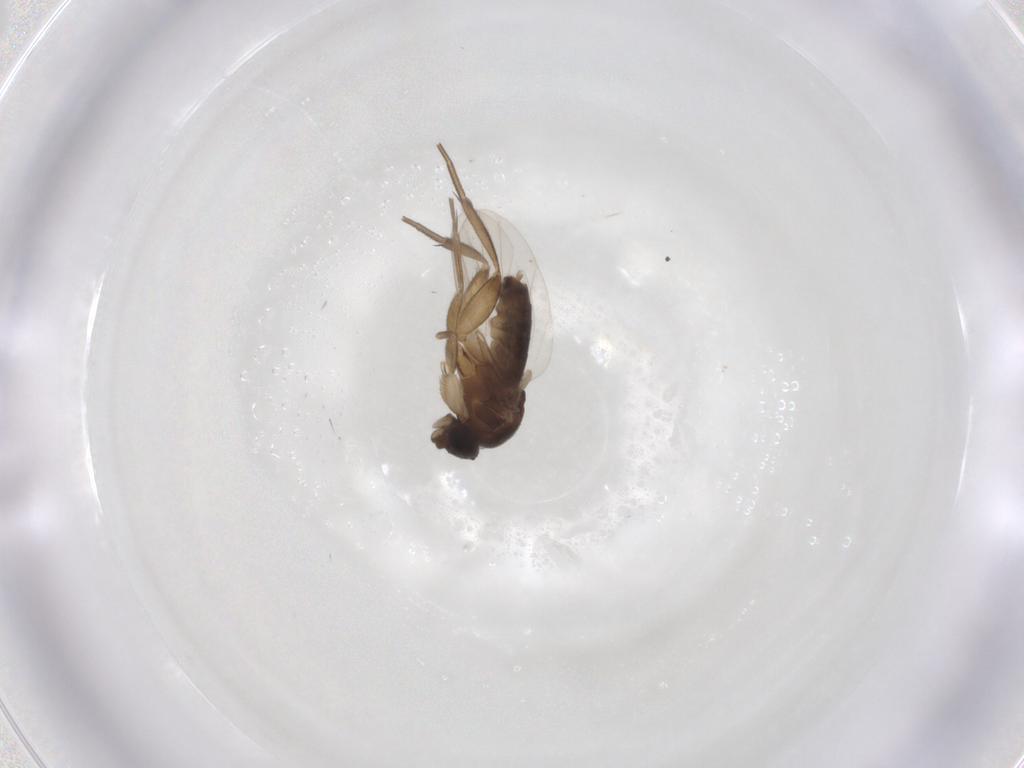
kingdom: Animalia
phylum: Arthropoda
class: Insecta
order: Diptera
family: Phoridae
